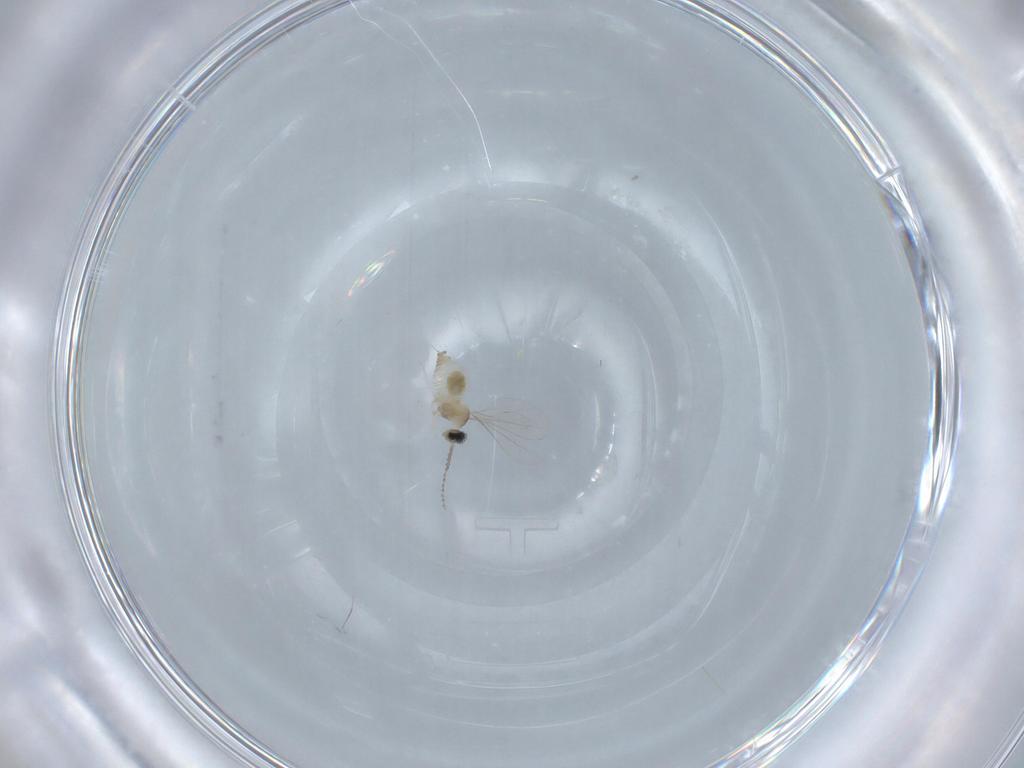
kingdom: Animalia
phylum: Arthropoda
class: Insecta
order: Diptera
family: Cecidomyiidae
